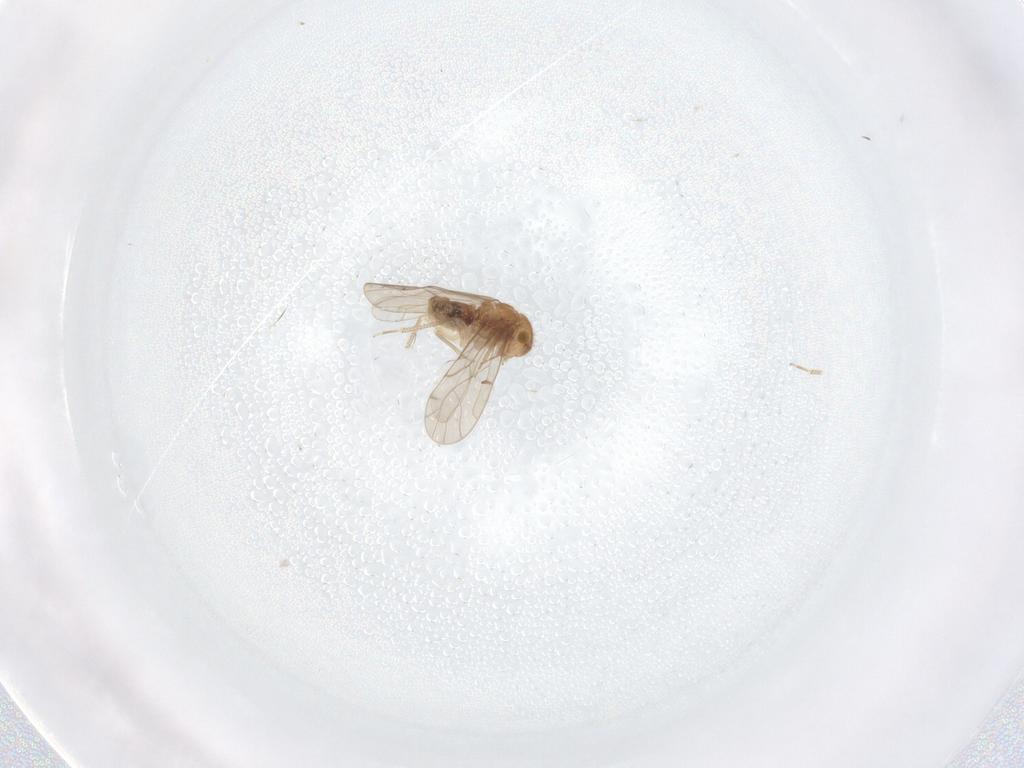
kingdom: Animalia
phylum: Arthropoda
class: Insecta
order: Psocodea
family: Ectopsocidae
